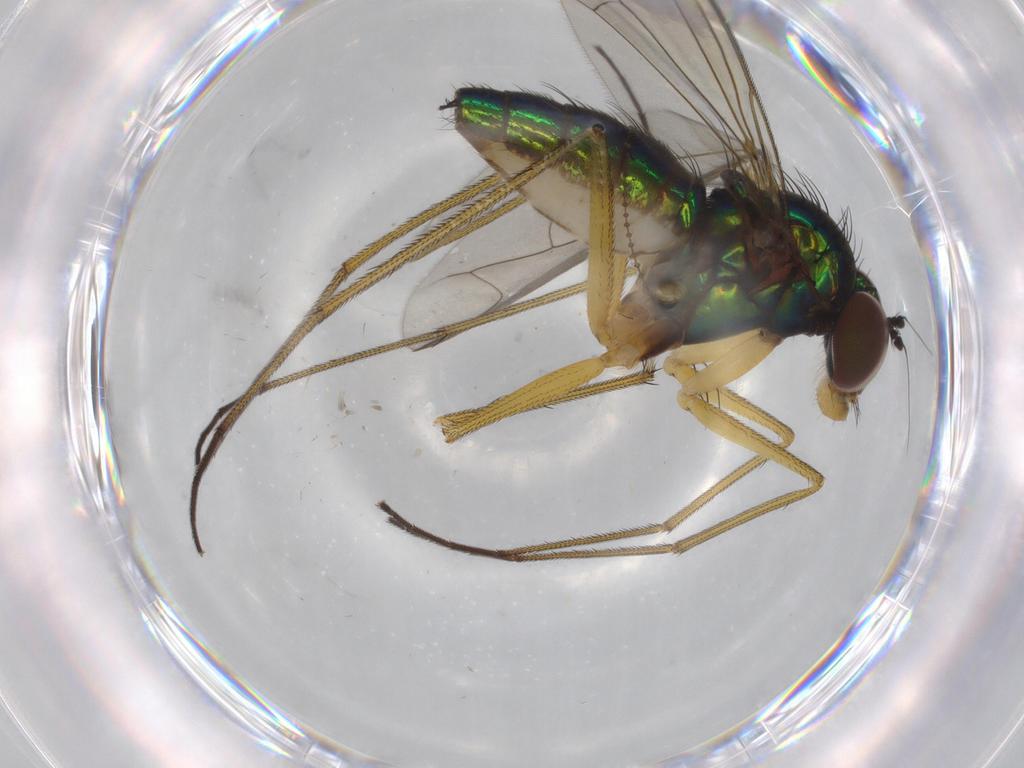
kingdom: Animalia
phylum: Arthropoda
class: Insecta
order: Diptera
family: Dolichopodidae
